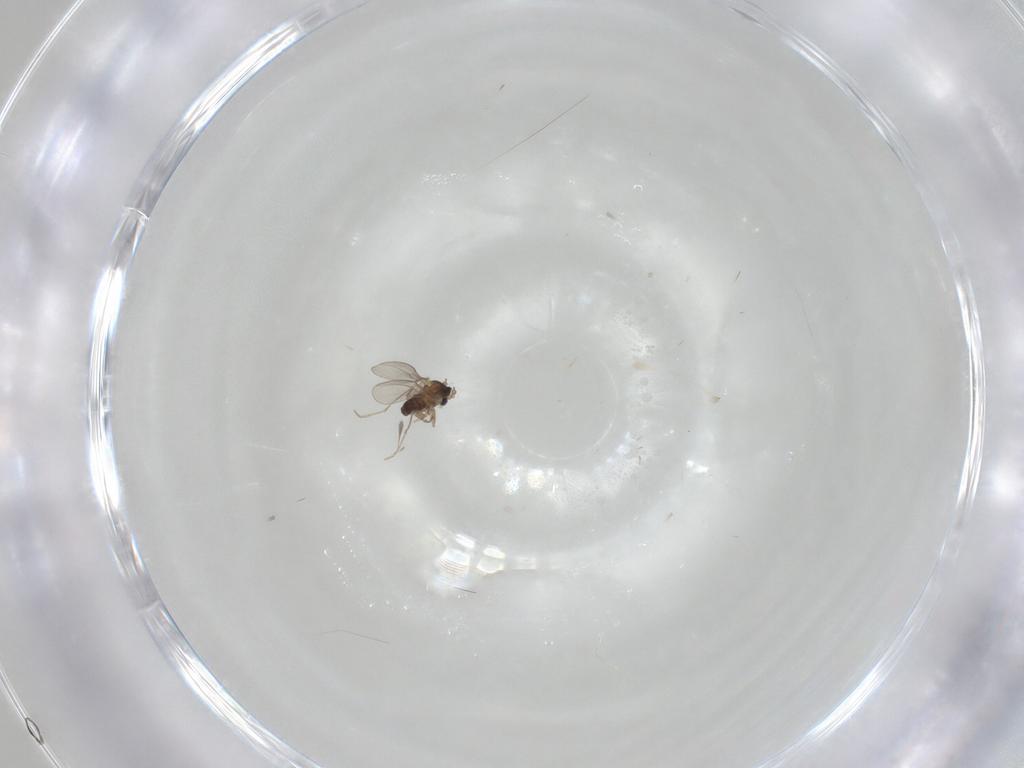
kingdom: Animalia
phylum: Arthropoda
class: Insecta
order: Diptera
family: Cecidomyiidae
